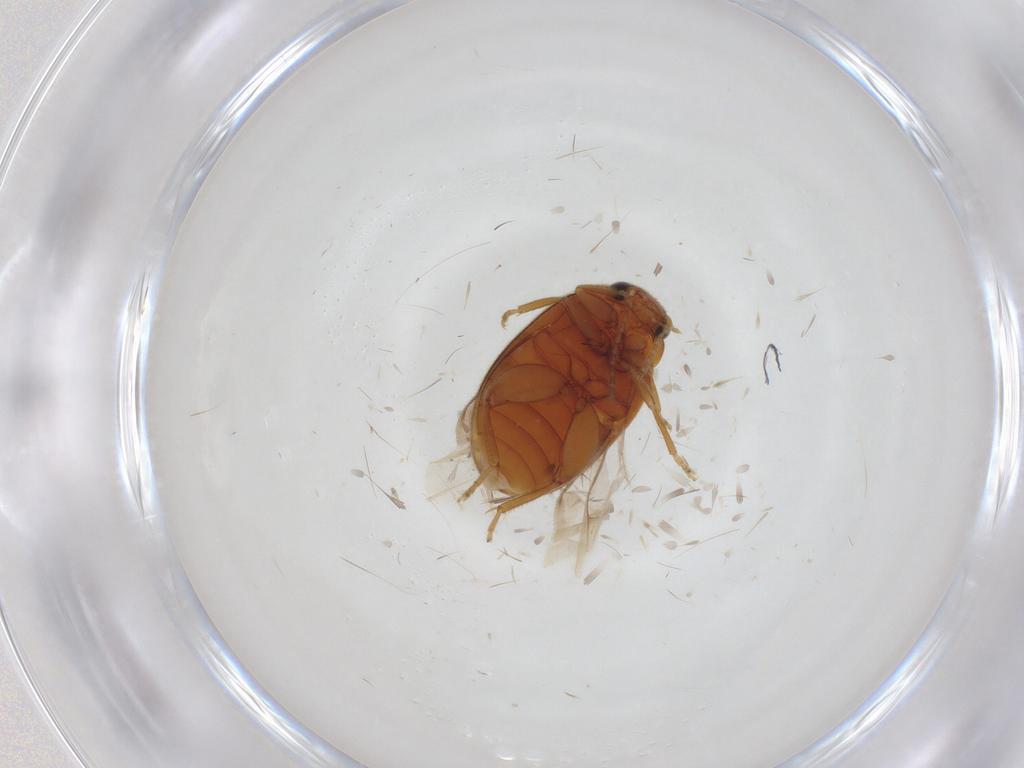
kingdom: Animalia
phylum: Arthropoda
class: Insecta
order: Coleoptera
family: Scirtidae
